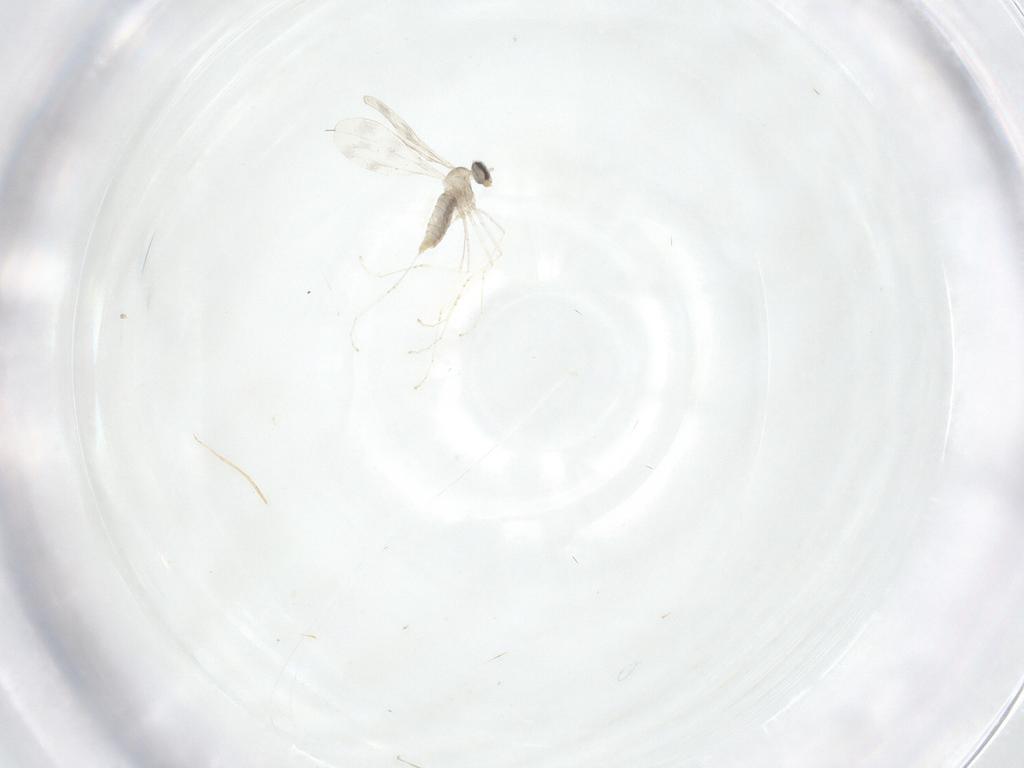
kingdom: Animalia
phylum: Arthropoda
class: Insecta
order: Diptera
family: Cecidomyiidae
